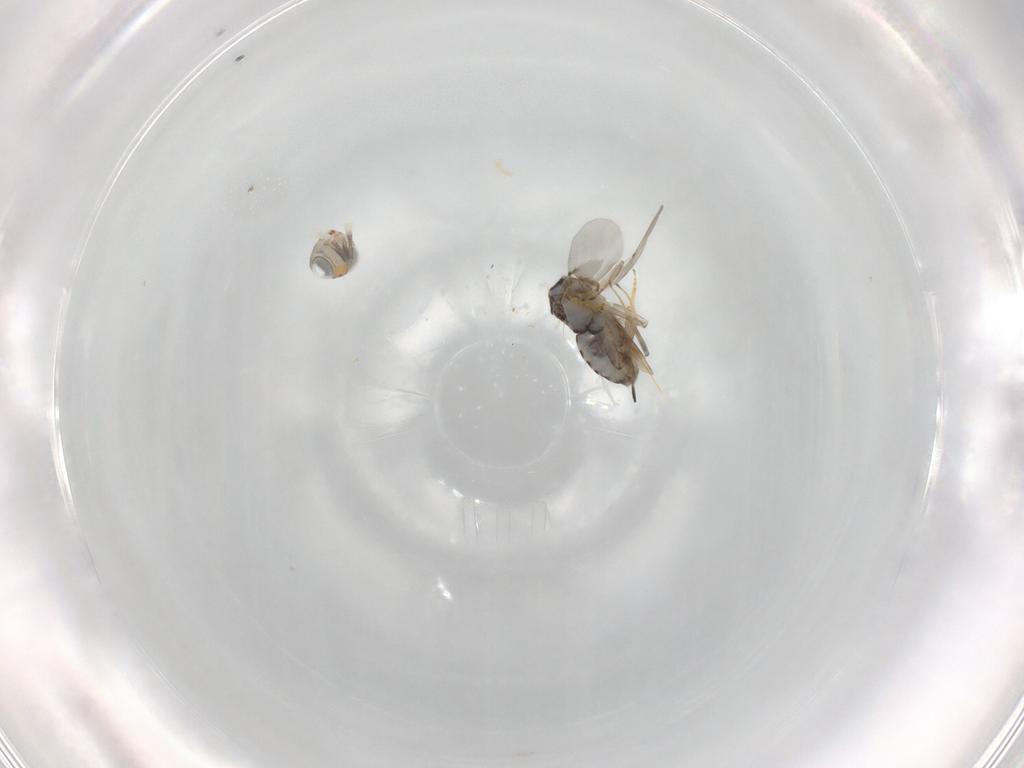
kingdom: Animalia
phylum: Arthropoda
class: Insecta
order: Hymenoptera
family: Encyrtidae
